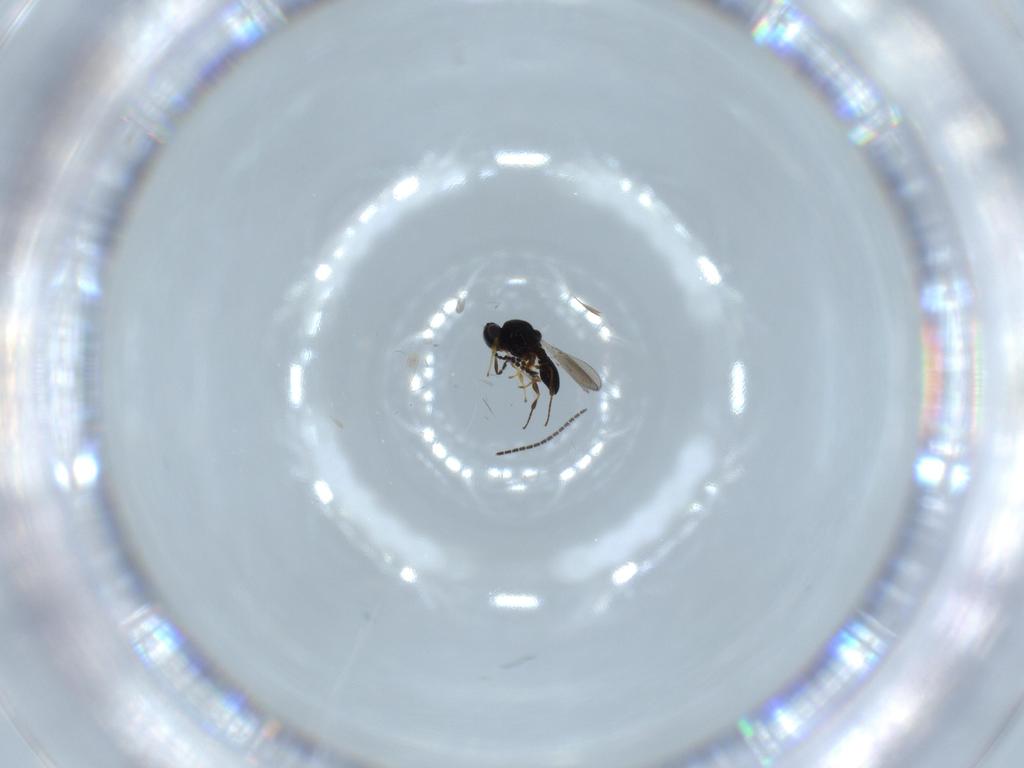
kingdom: Animalia
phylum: Arthropoda
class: Insecta
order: Hymenoptera
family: Platygastridae
